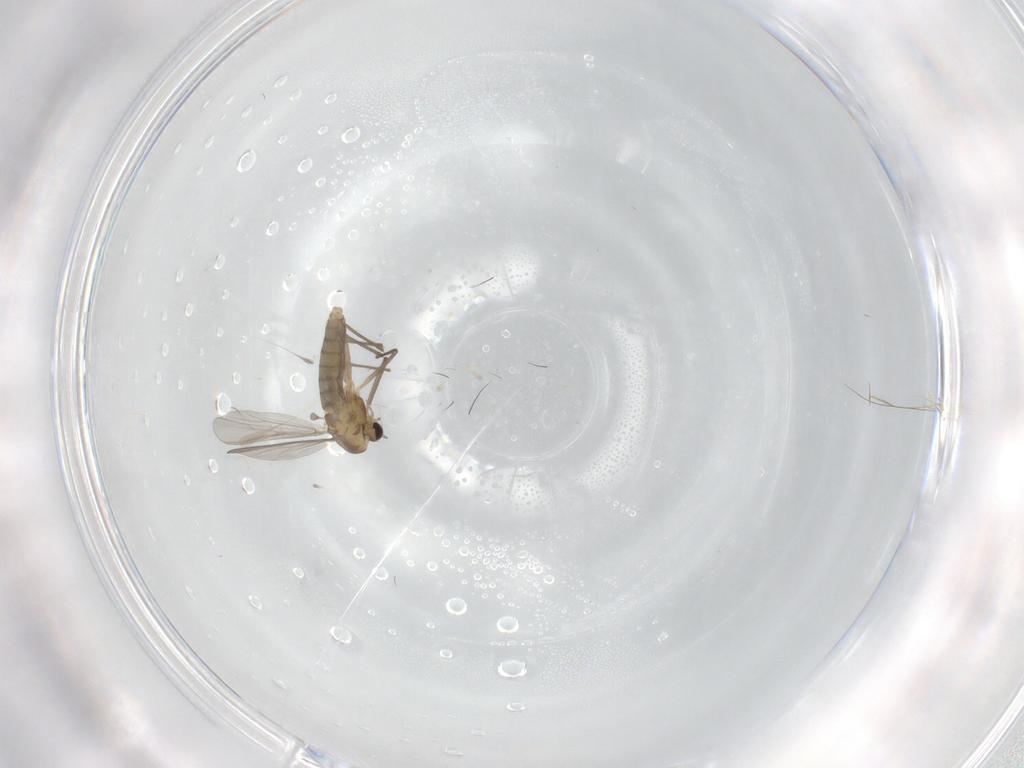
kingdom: Animalia
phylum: Arthropoda
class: Insecta
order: Diptera
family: Chironomidae
